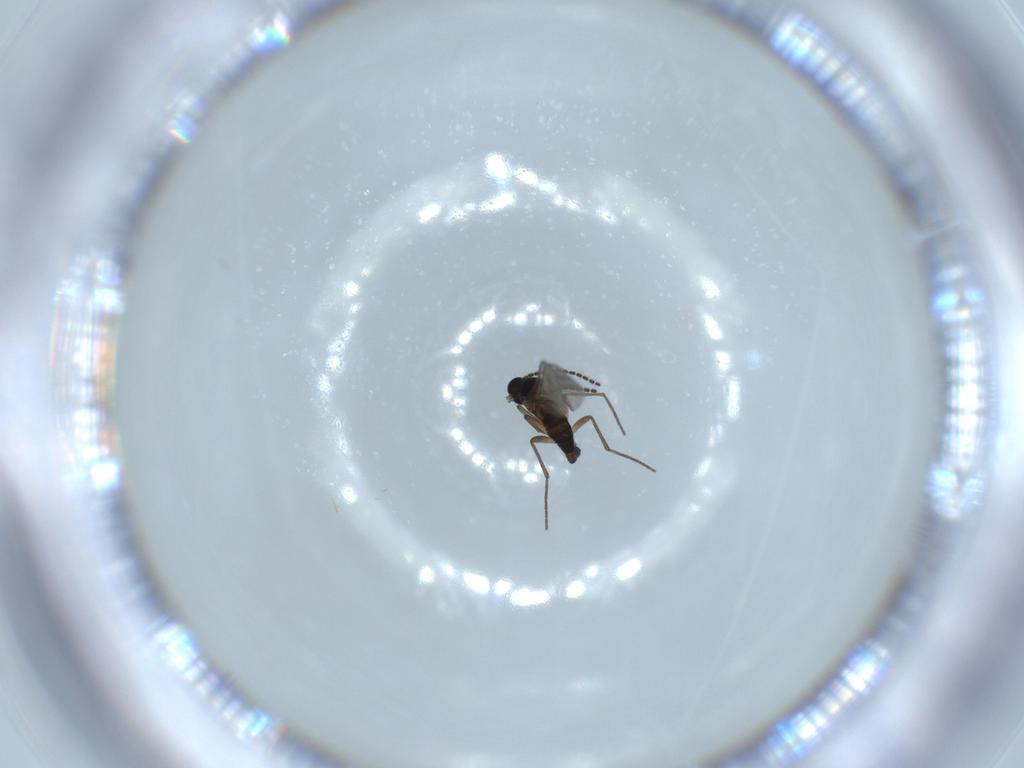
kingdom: Animalia
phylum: Arthropoda
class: Insecta
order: Diptera
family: Sciaridae
